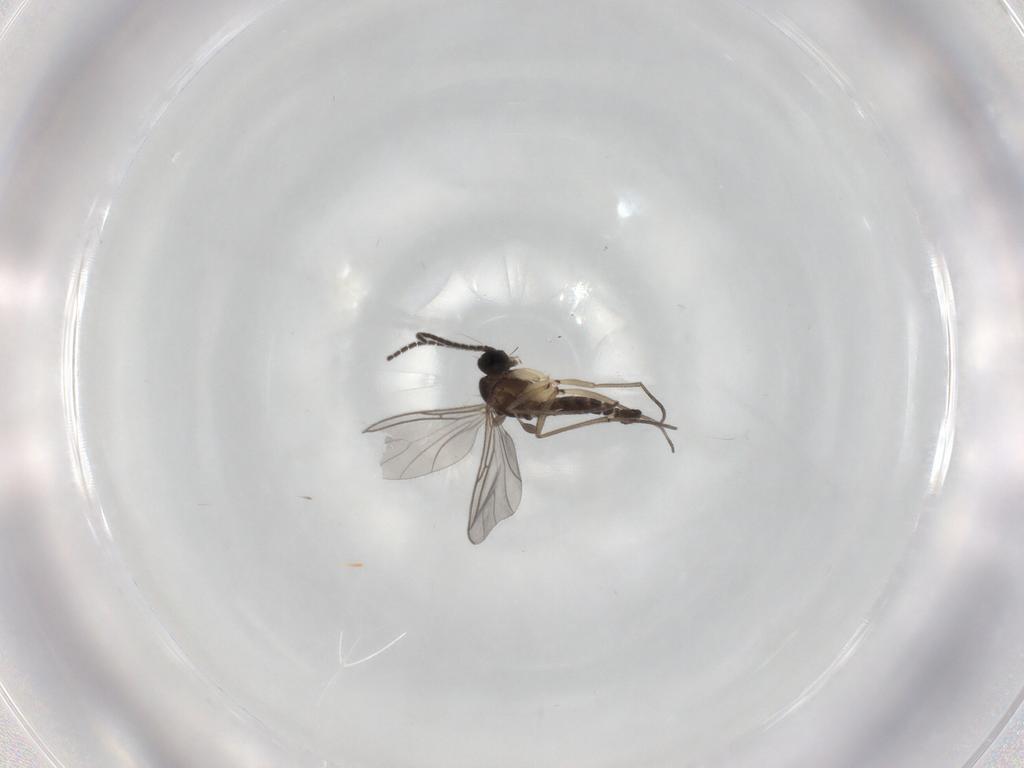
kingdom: Animalia
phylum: Arthropoda
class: Insecta
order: Diptera
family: Sciaridae
